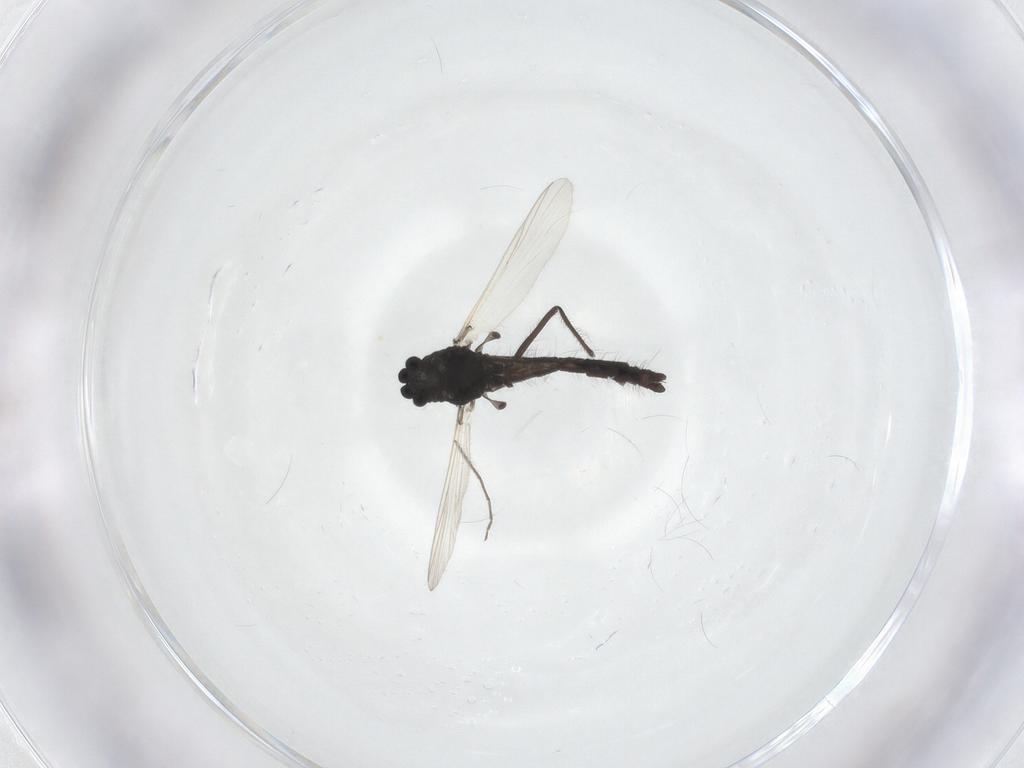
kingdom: Animalia
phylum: Arthropoda
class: Insecta
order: Diptera
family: Chironomidae
